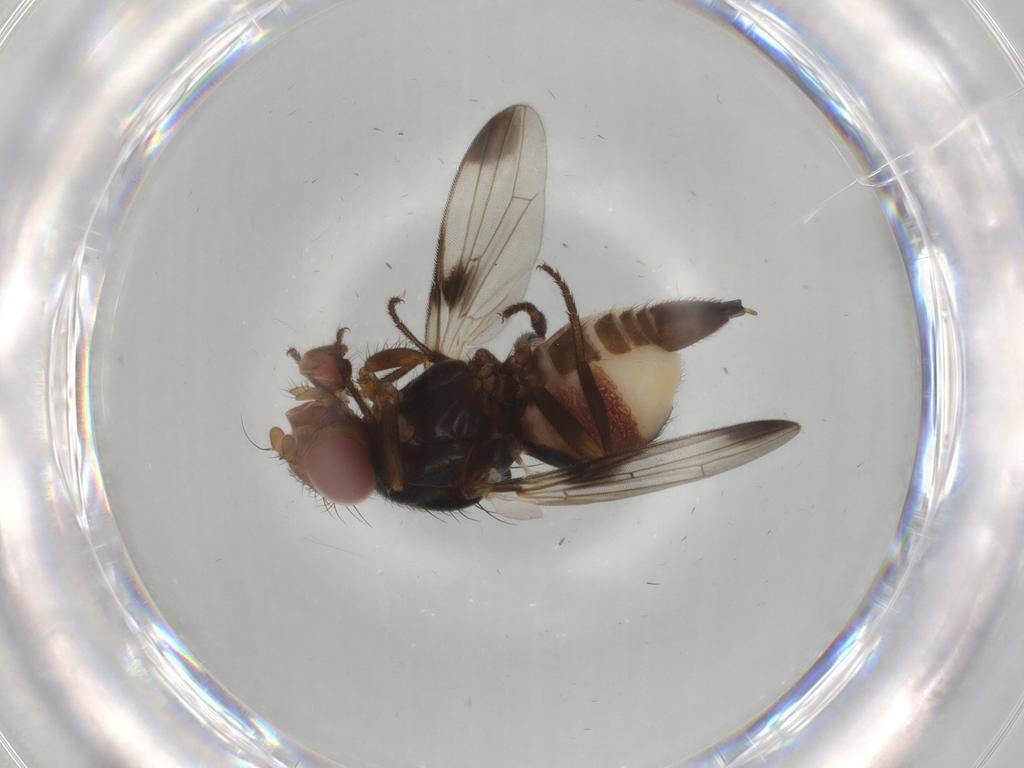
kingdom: Animalia
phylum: Arthropoda
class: Insecta
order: Diptera
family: Ulidiidae
